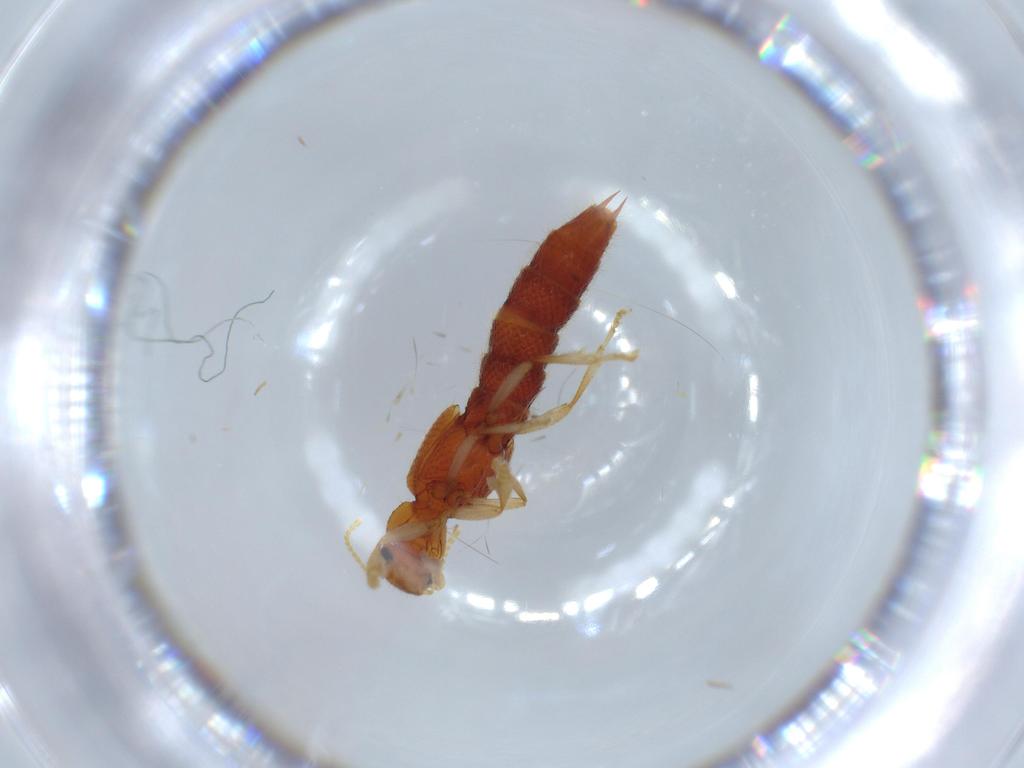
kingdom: Animalia
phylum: Arthropoda
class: Insecta
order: Coleoptera
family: Staphylinidae
